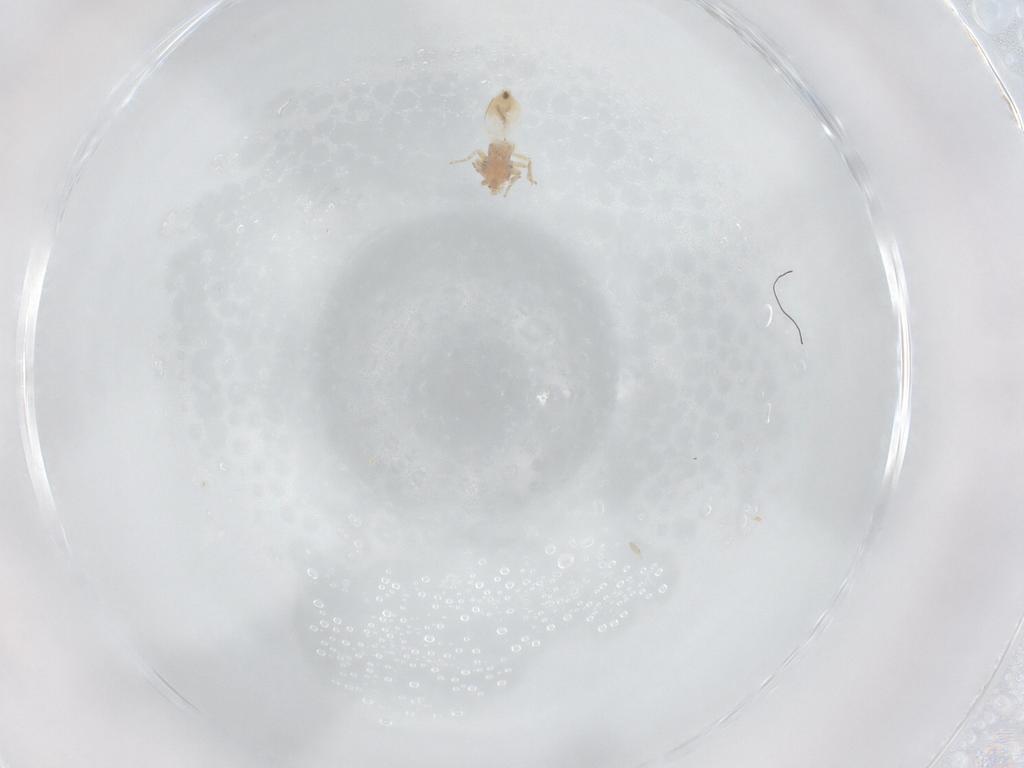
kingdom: Animalia
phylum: Arthropoda
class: Insecta
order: Psocodea
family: Lepidopsocidae
